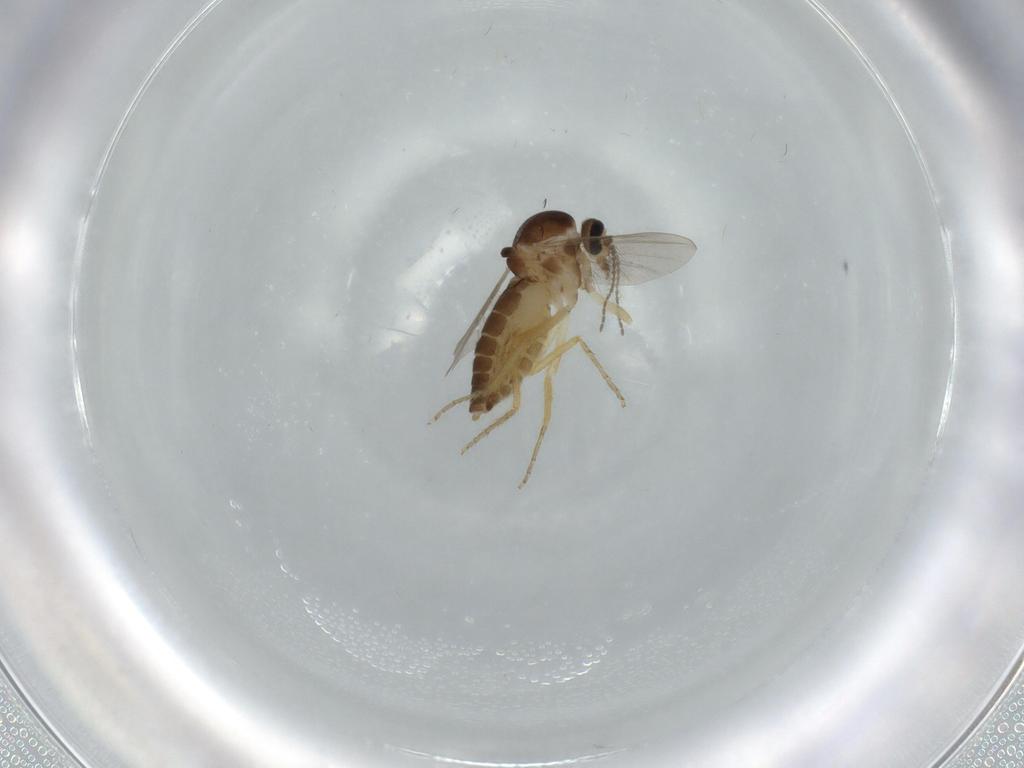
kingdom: Animalia
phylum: Arthropoda
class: Insecta
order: Diptera
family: Ceratopogonidae
